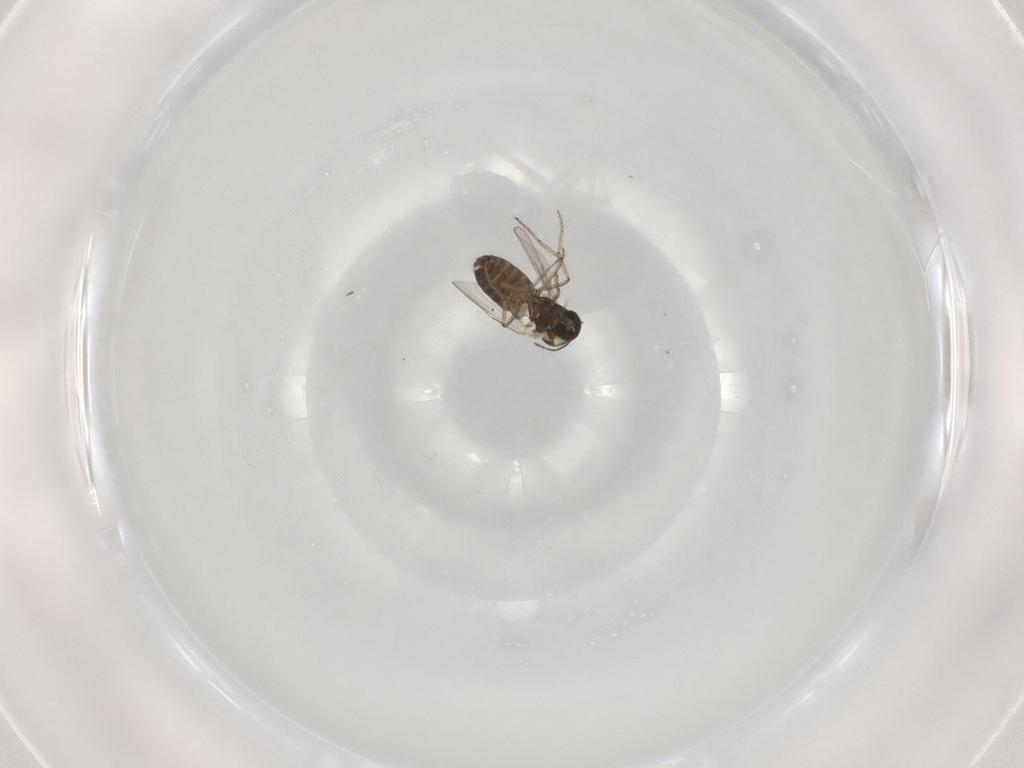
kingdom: Animalia
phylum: Arthropoda
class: Insecta
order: Diptera
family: Ceratopogonidae
